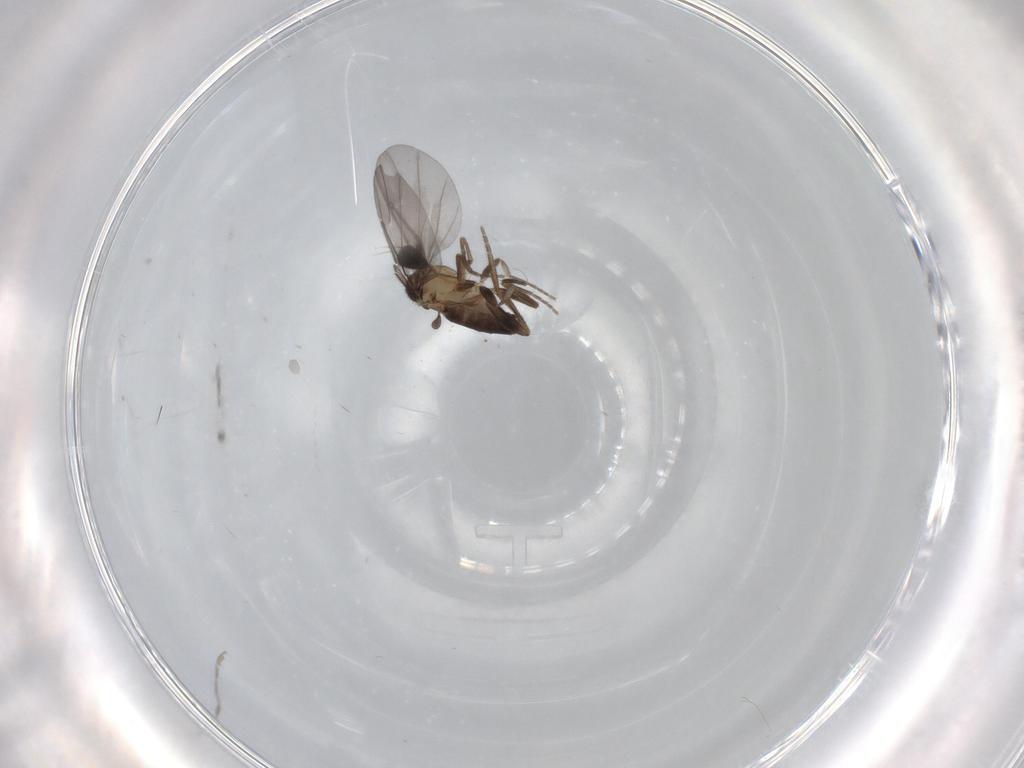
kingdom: Animalia
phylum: Arthropoda
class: Insecta
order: Diptera
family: Phoridae
